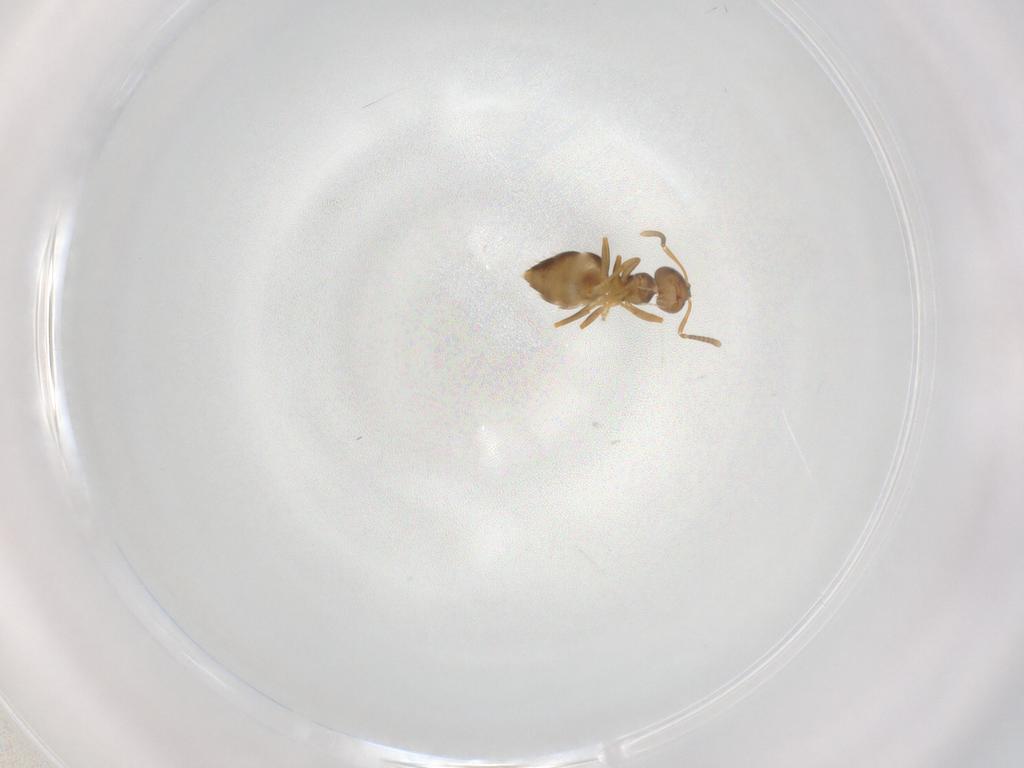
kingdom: Animalia
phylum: Arthropoda
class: Insecta
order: Hymenoptera
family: Formicidae
